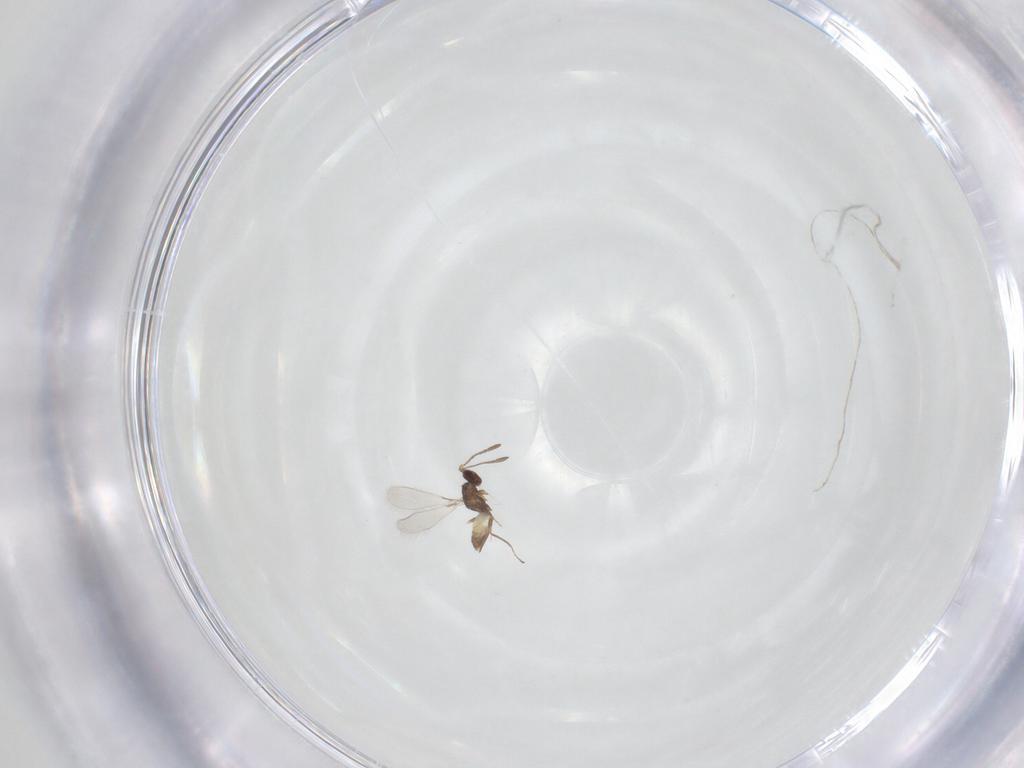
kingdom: Animalia
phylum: Arthropoda
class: Insecta
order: Hymenoptera
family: Mymaridae
